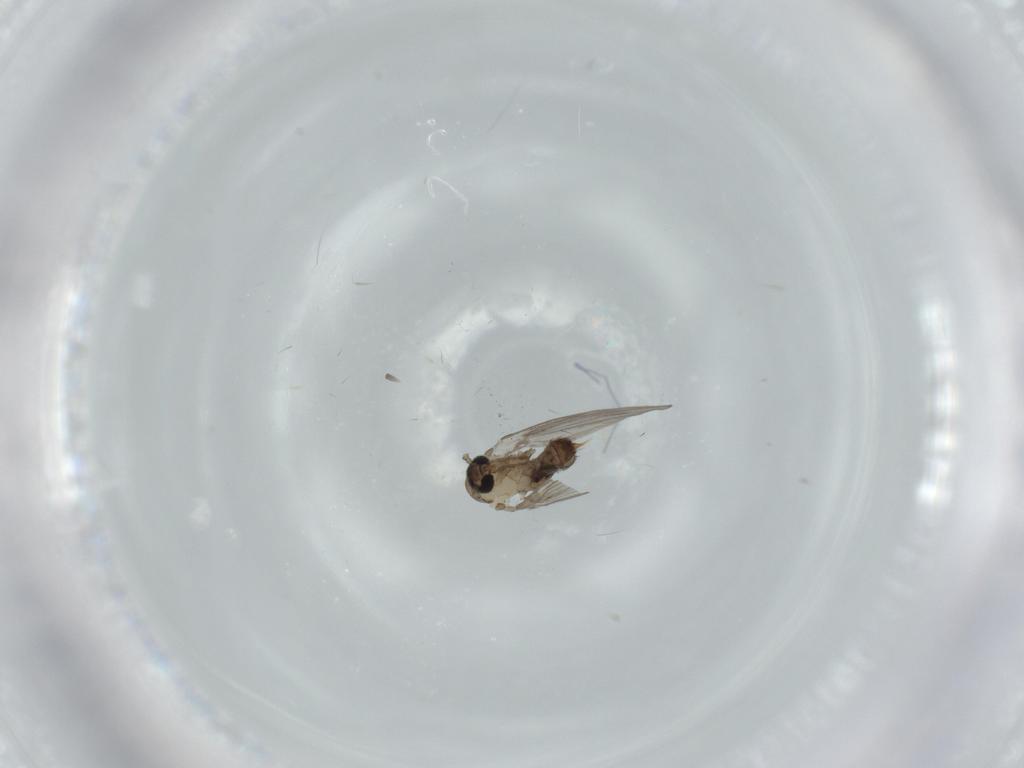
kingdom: Animalia
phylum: Arthropoda
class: Insecta
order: Diptera
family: Psychodidae
